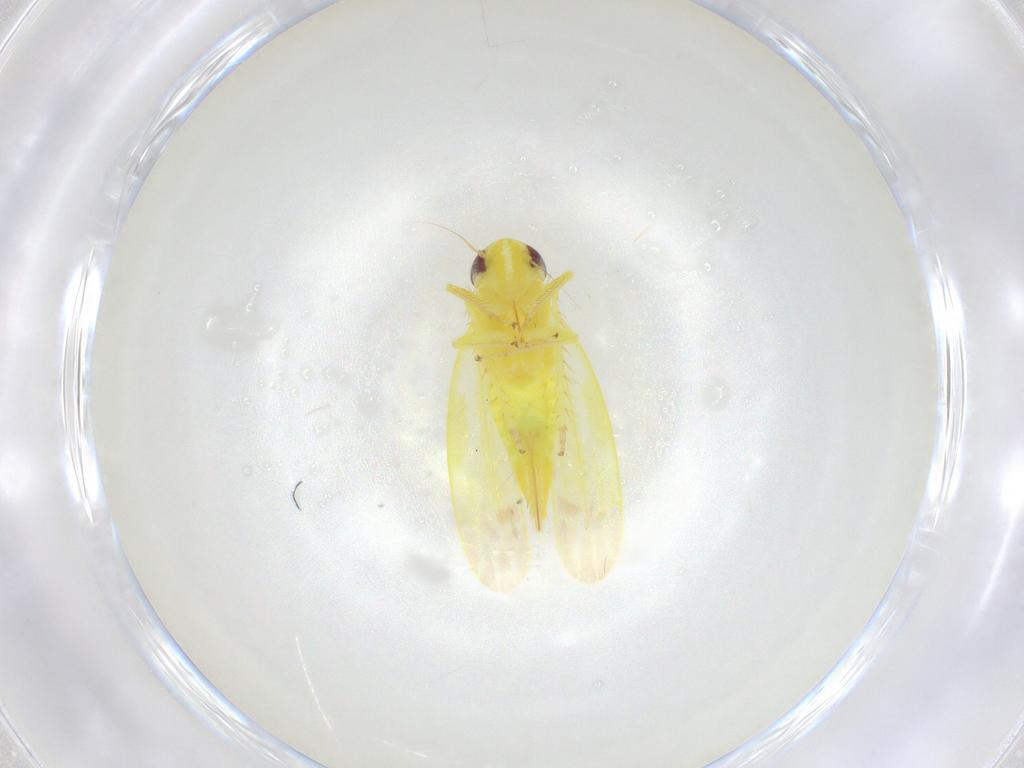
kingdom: Animalia
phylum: Arthropoda
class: Insecta
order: Hemiptera
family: Cicadellidae
